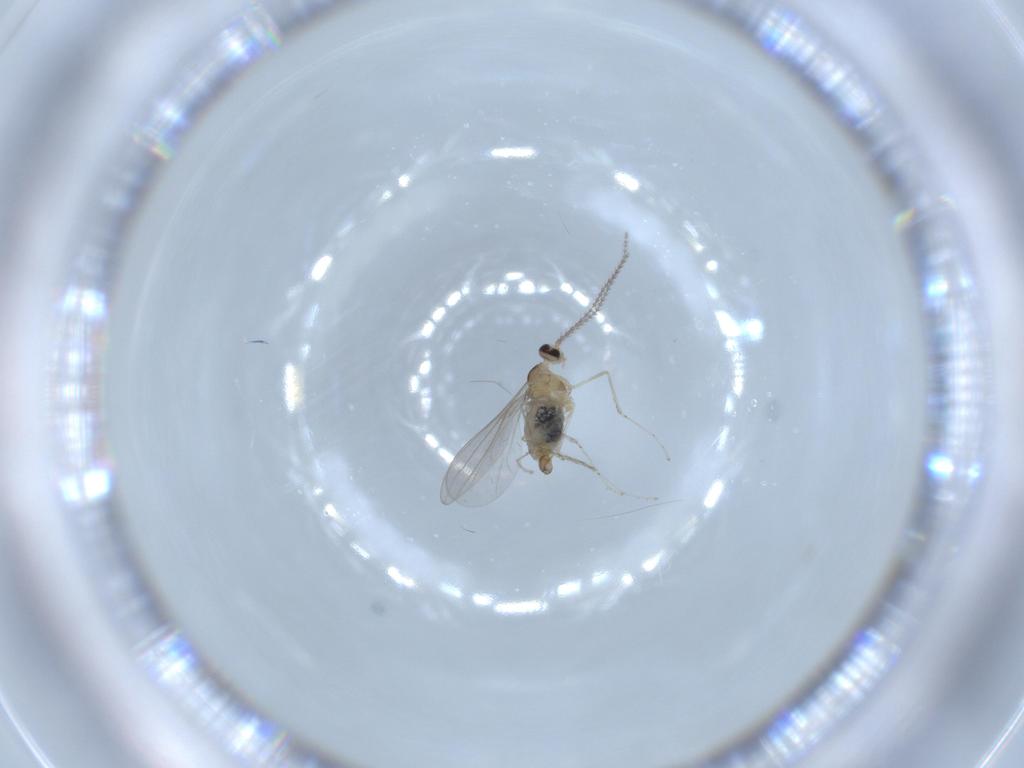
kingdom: Animalia
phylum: Arthropoda
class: Insecta
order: Diptera
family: Cecidomyiidae
